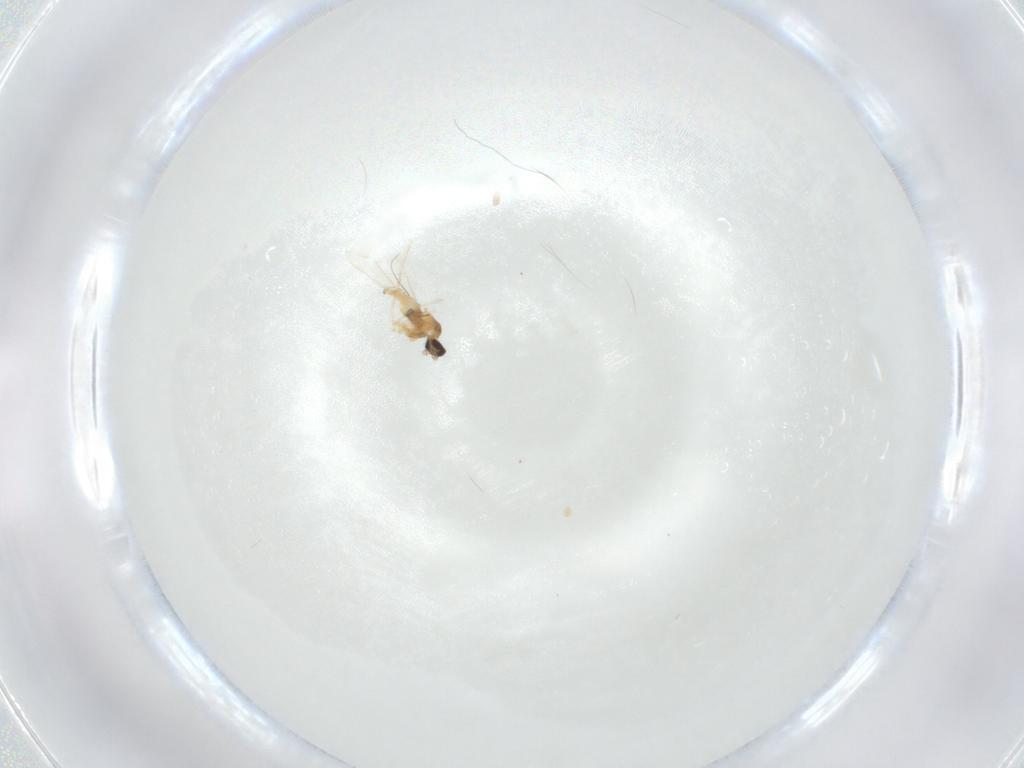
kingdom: Animalia
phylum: Arthropoda
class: Insecta
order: Diptera
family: Cecidomyiidae
